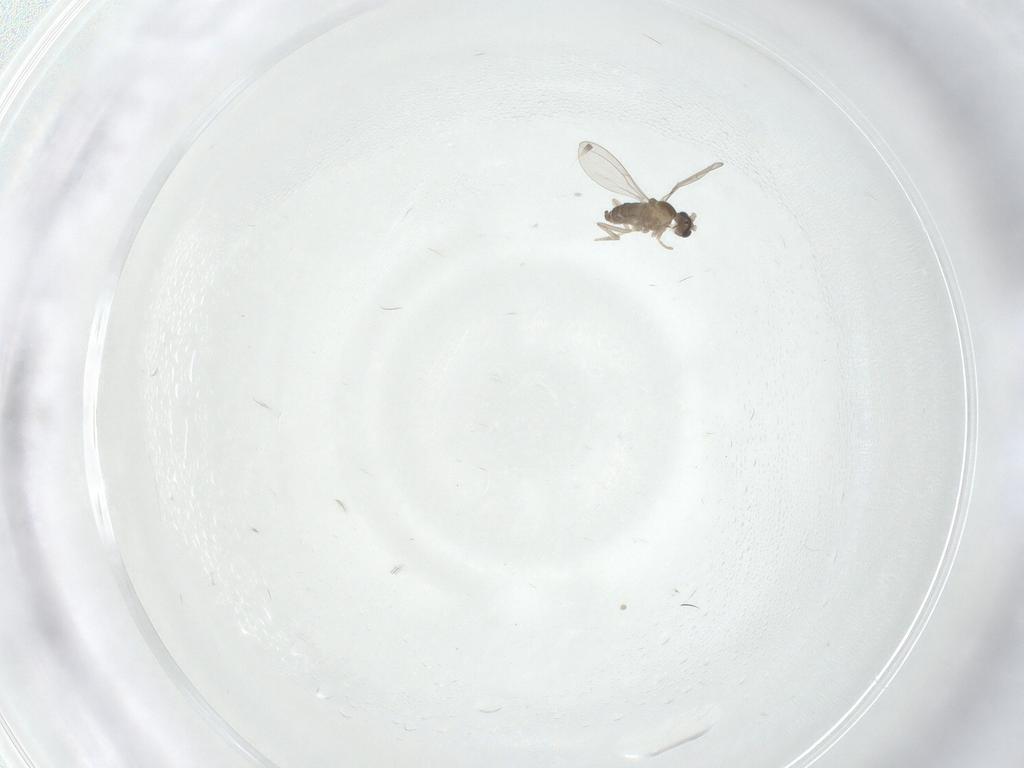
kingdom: Animalia
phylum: Arthropoda
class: Insecta
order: Diptera
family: Cecidomyiidae
